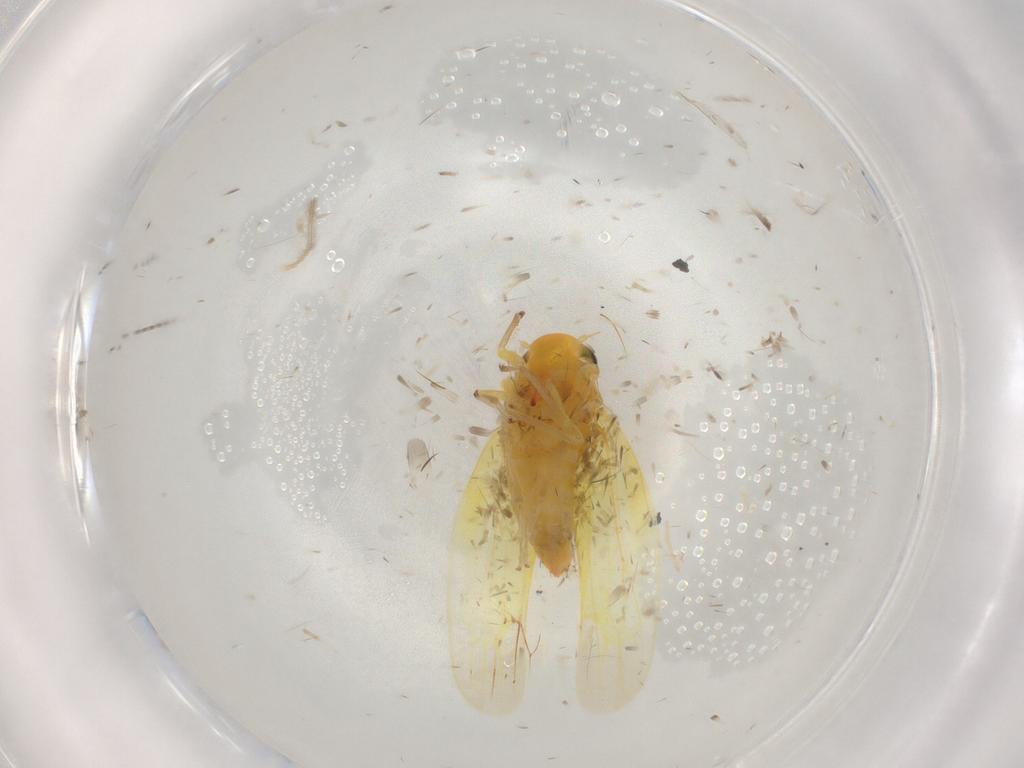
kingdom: Animalia
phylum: Arthropoda
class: Insecta
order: Hemiptera
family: Cicadellidae
